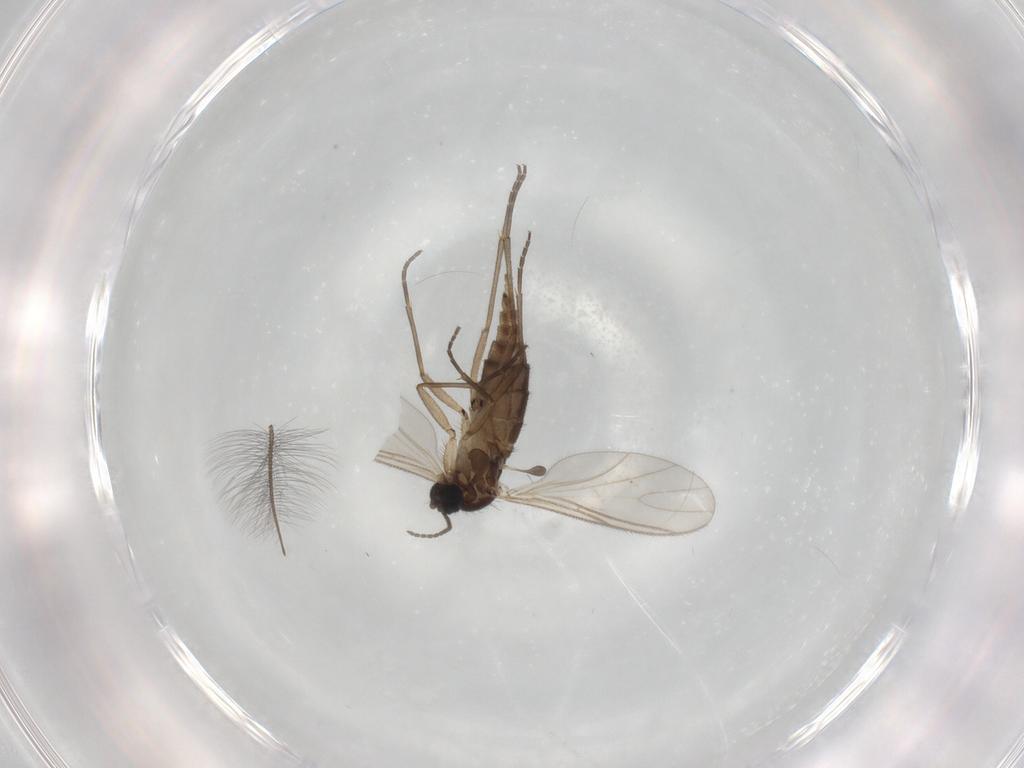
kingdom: Animalia
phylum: Arthropoda
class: Insecta
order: Diptera
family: Sciaridae
